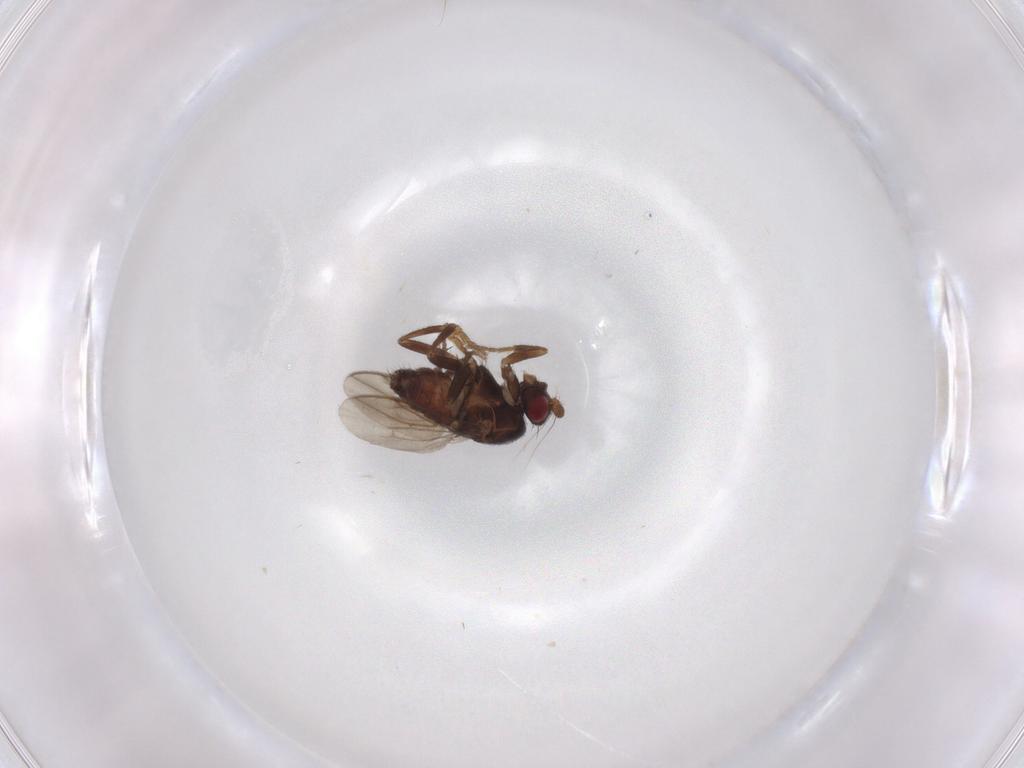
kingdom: Animalia
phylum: Arthropoda
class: Insecta
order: Diptera
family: Sphaeroceridae
